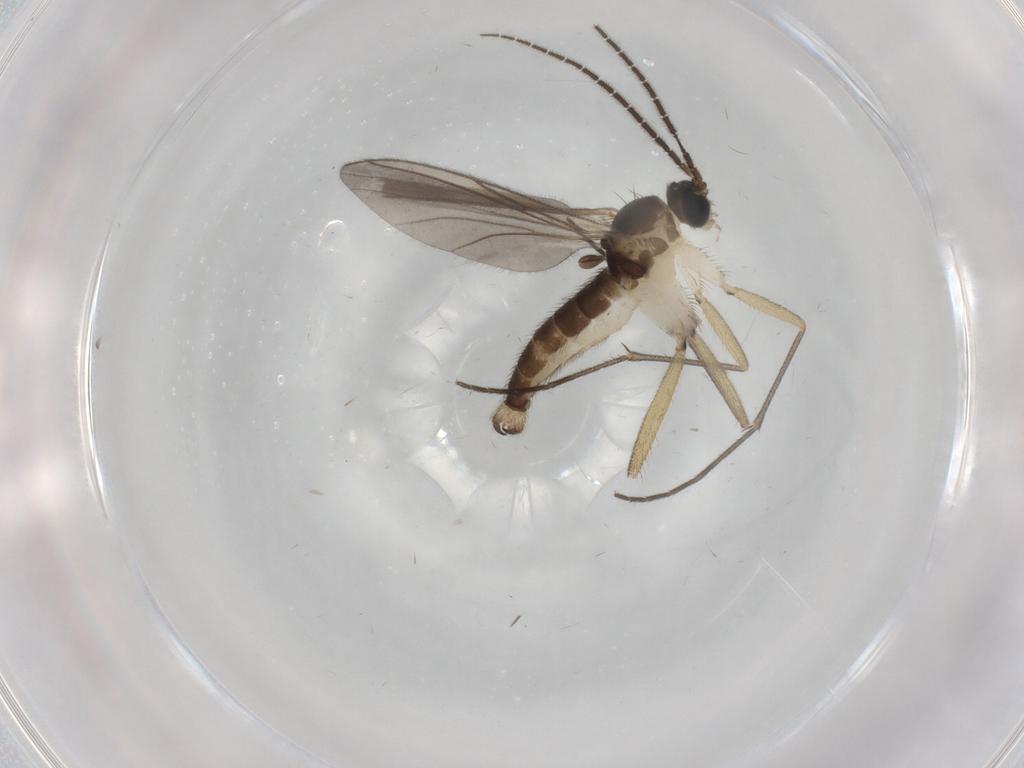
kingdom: Animalia
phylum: Arthropoda
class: Insecta
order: Diptera
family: Sciaridae
